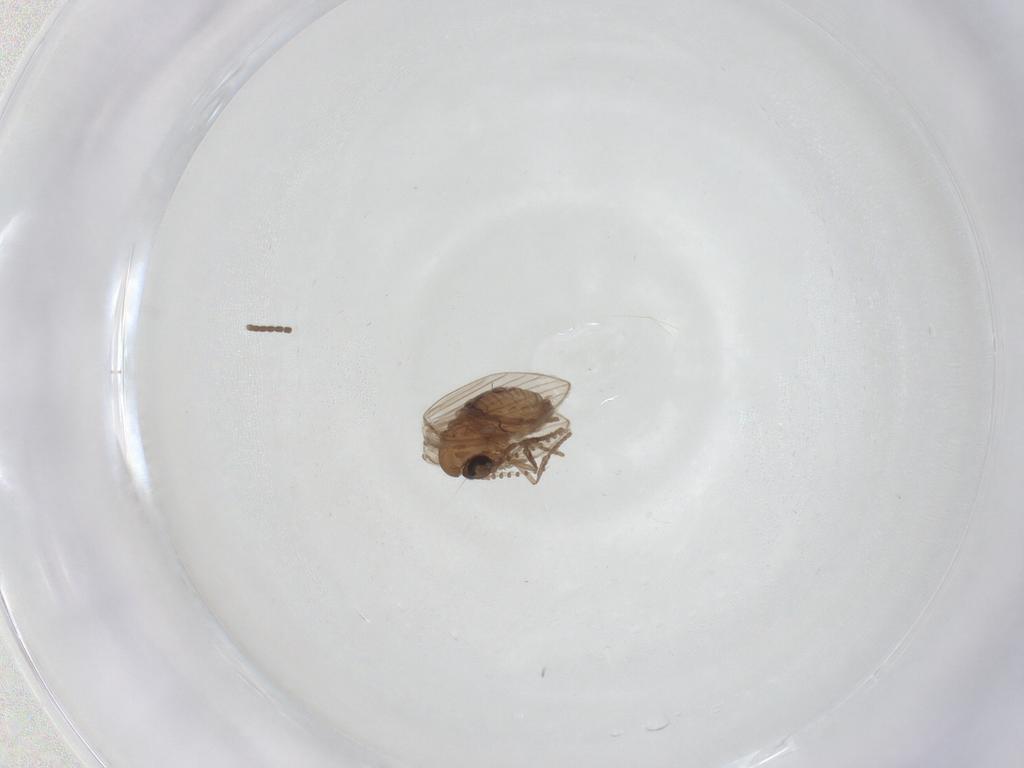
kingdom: Animalia
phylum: Arthropoda
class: Insecta
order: Diptera
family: Psychodidae
